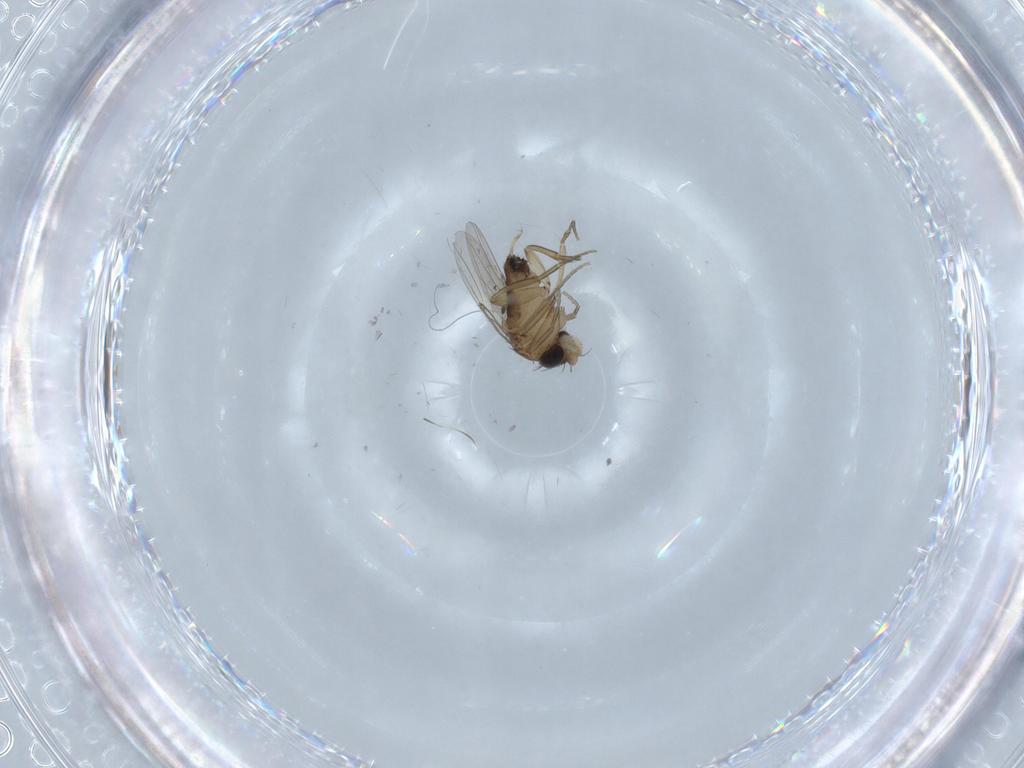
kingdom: Animalia
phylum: Arthropoda
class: Insecta
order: Diptera
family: Phoridae
